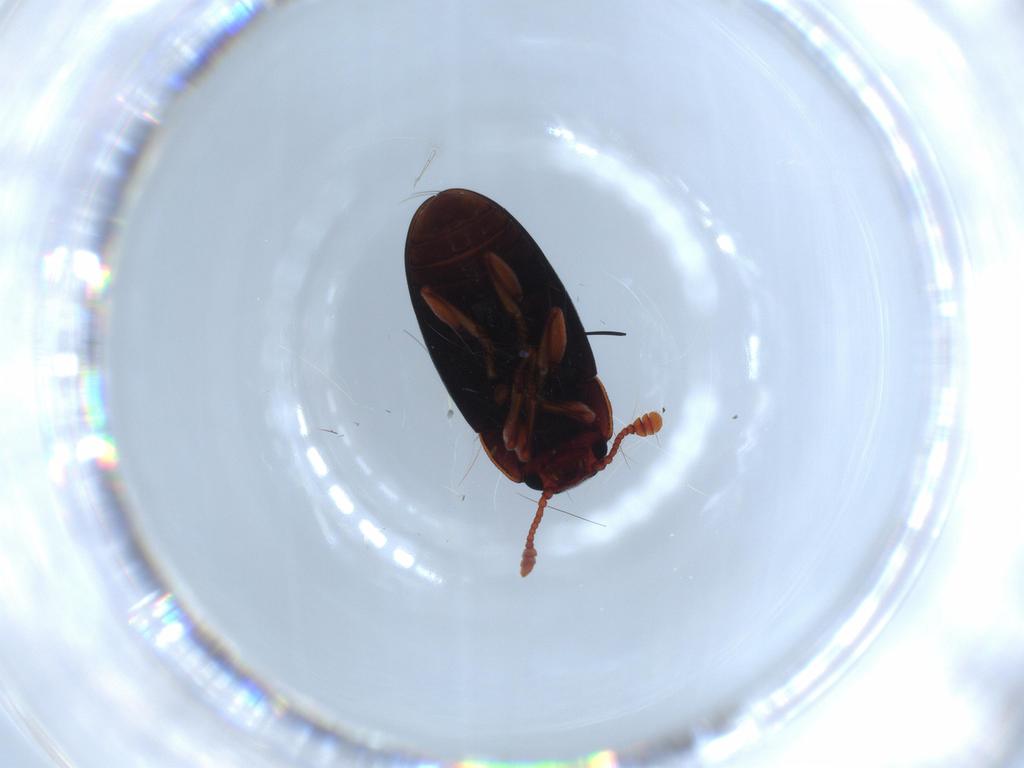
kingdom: Animalia
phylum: Arthropoda
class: Insecta
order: Coleoptera
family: Erotylidae
